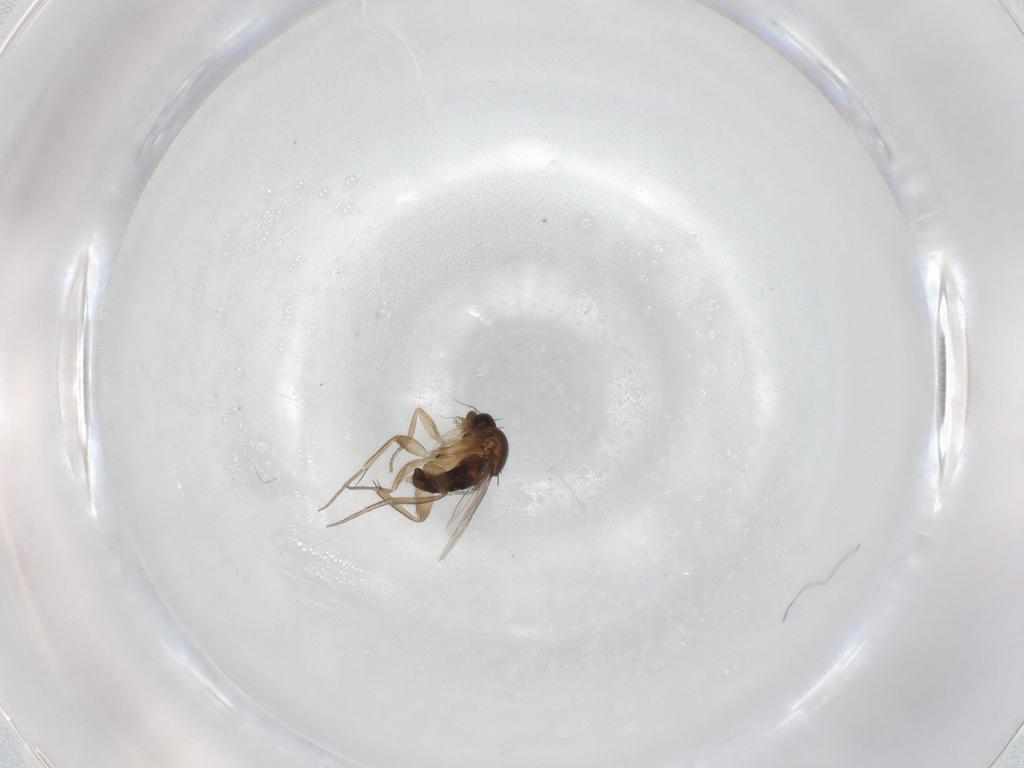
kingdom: Animalia
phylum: Arthropoda
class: Insecta
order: Diptera
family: Phoridae
